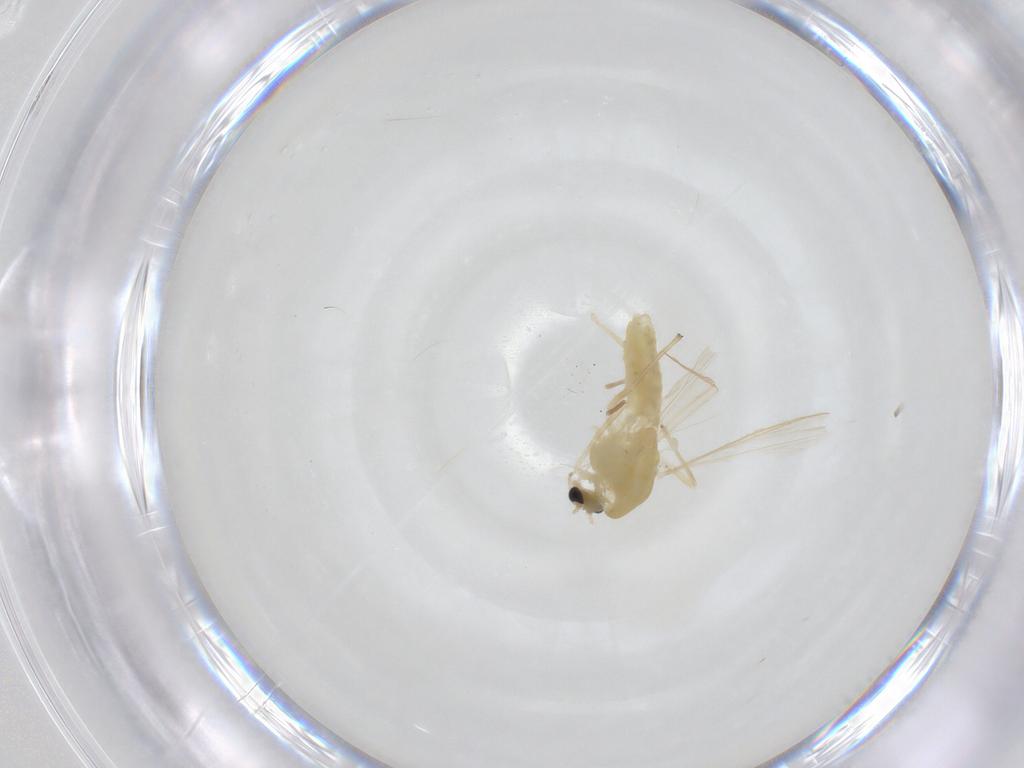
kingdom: Animalia
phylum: Arthropoda
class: Insecta
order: Diptera
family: Chironomidae
